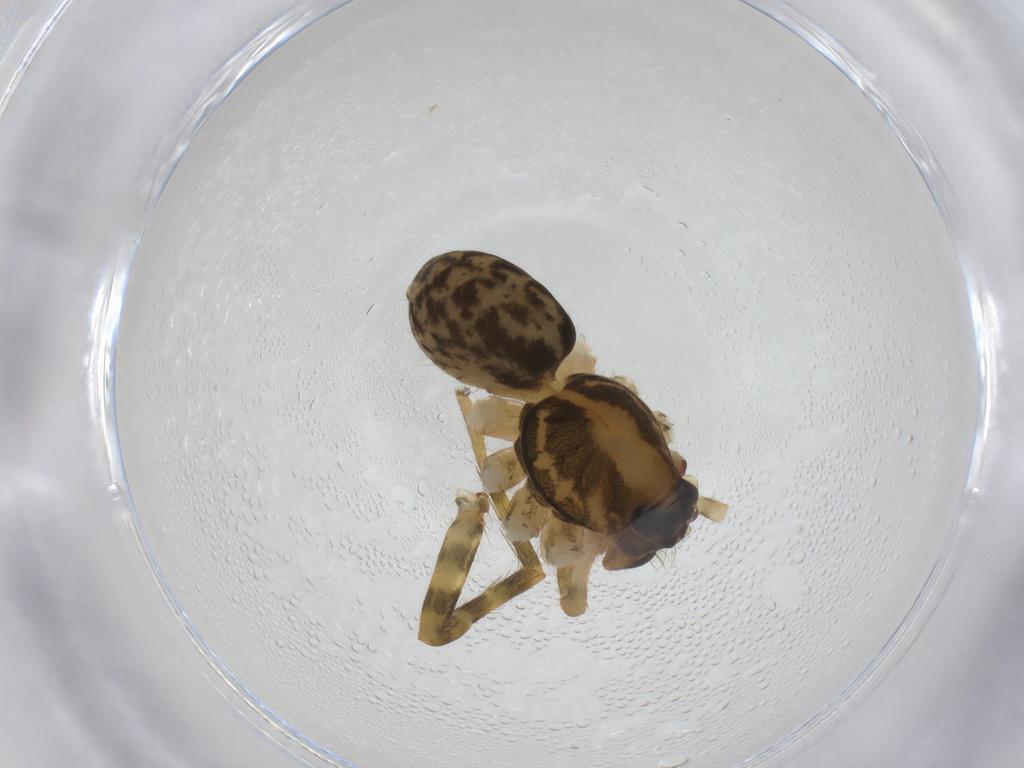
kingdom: Animalia
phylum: Arthropoda
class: Arachnida
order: Araneae
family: Ctenidae
